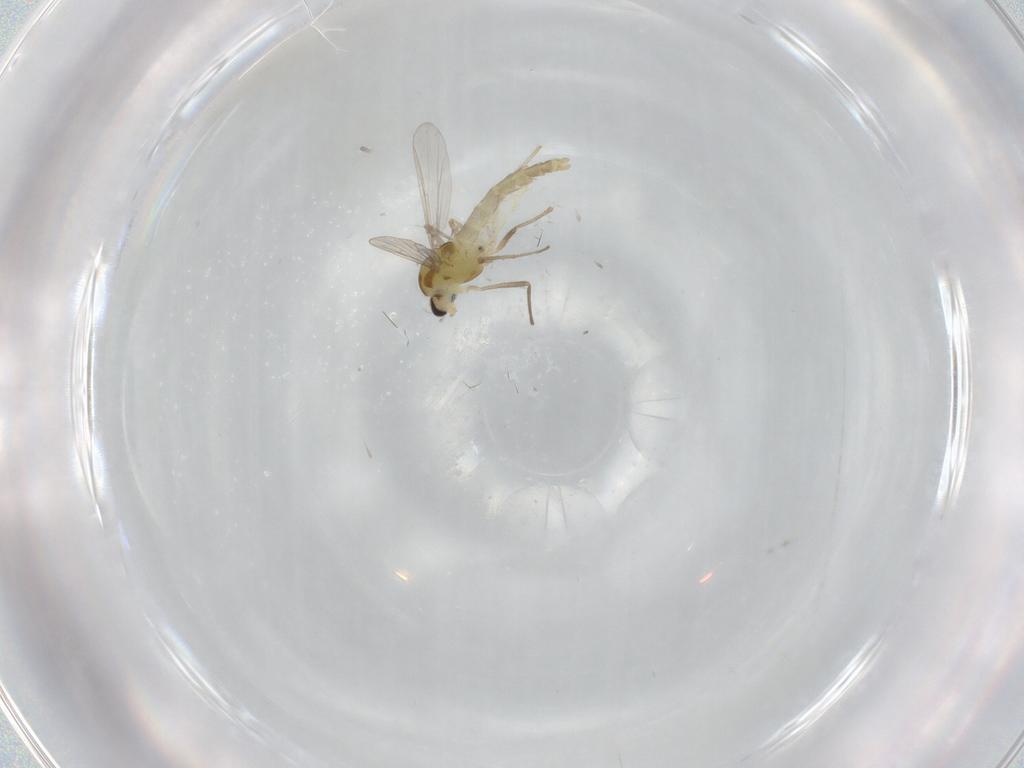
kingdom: Animalia
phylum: Arthropoda
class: Insecta
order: Diptera
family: Chironomidae
